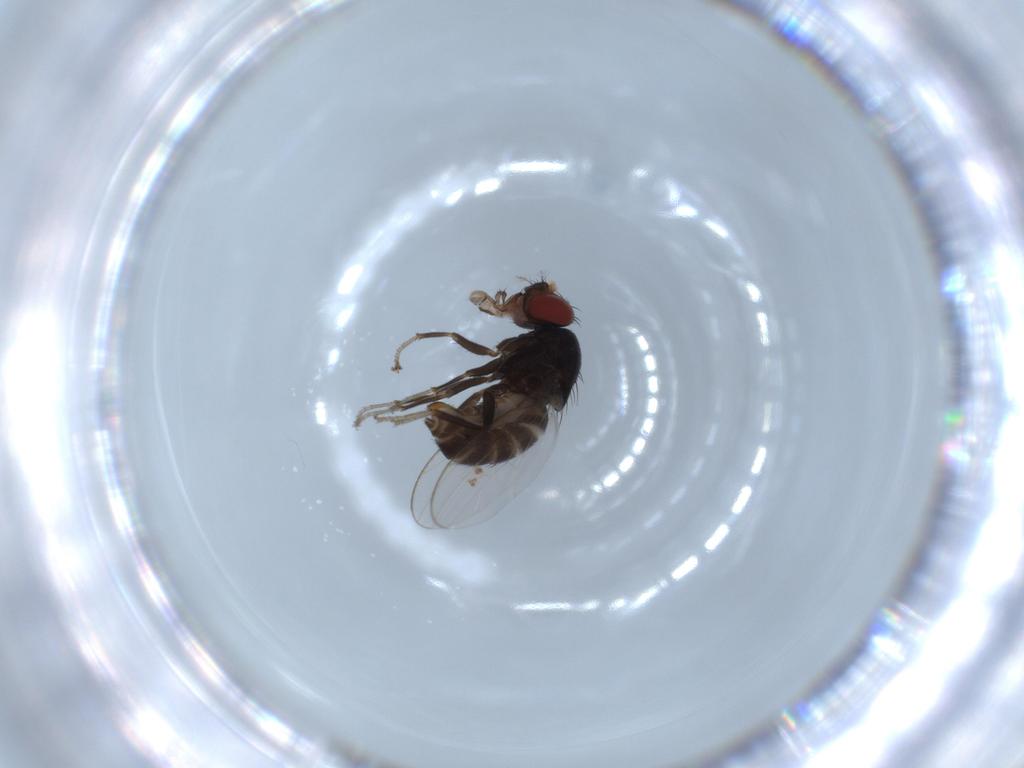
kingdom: Animalia
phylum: Arthropoda
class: Insecta
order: Diptera
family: Drosophilidae
